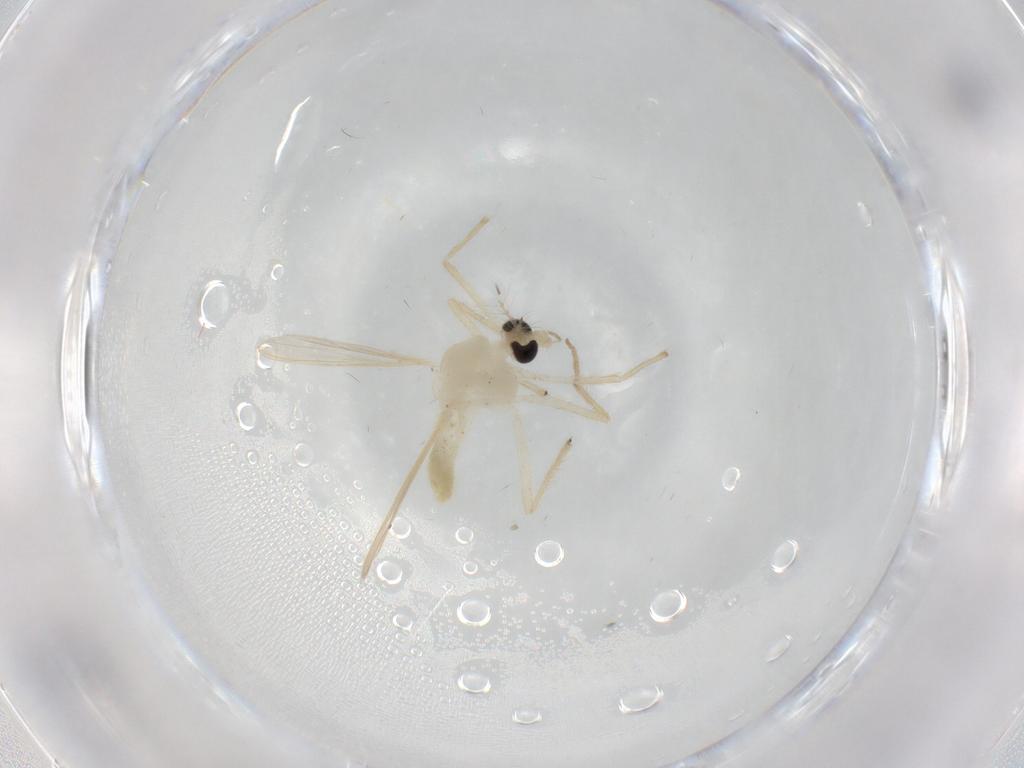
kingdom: Animalia
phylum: Arthropoda
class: Insecta
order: Diptera
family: Chironomidae
